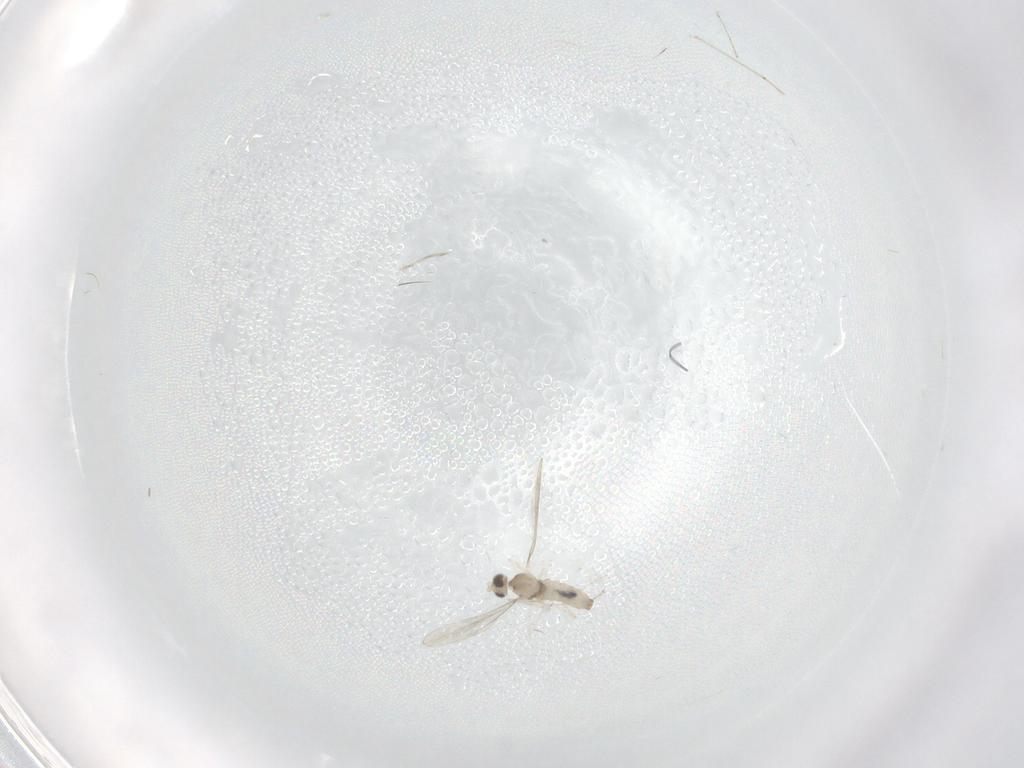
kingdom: Animalia
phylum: Arthropoda
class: Insecta
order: Diptera
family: Cecidomyiidae
